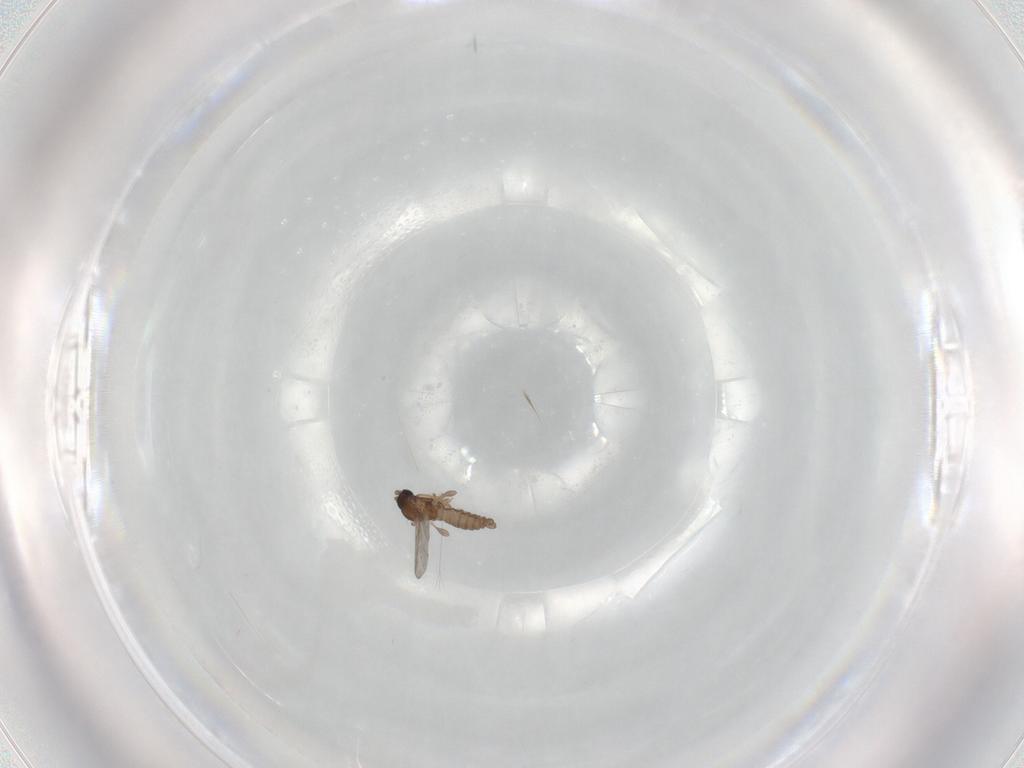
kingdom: Animalia
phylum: Arthropoda
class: Insecta
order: Diptera
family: Sciaridae
